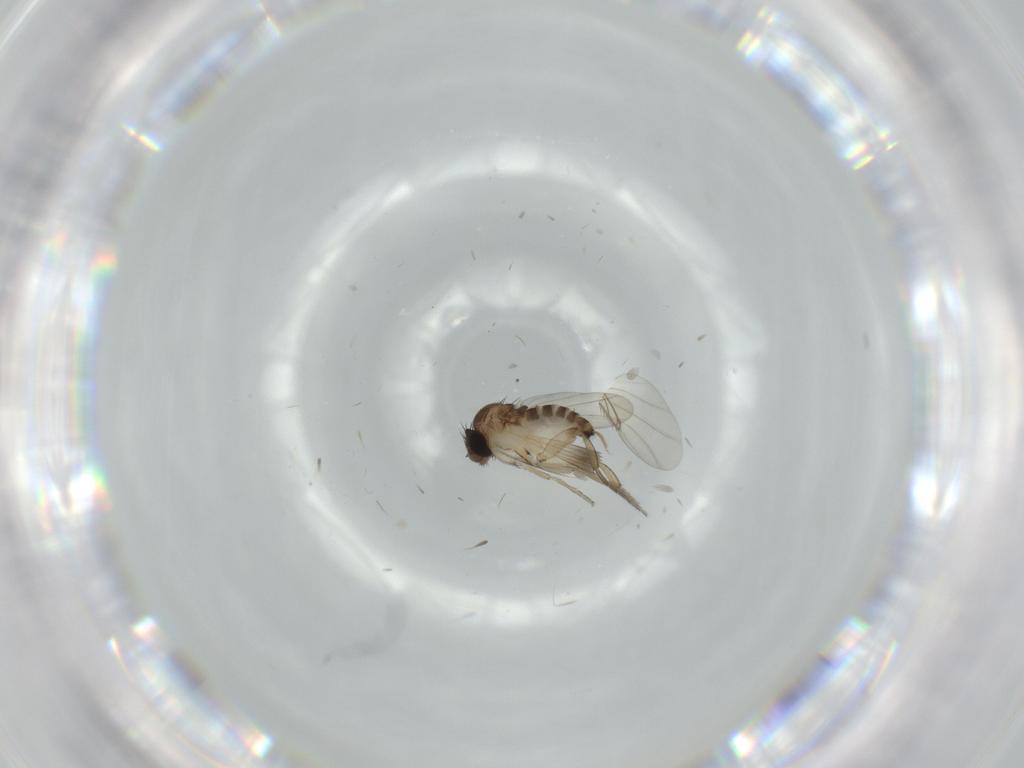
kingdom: Animalia
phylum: Arthropoda
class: Insecta
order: Diptera
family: Phoridae
